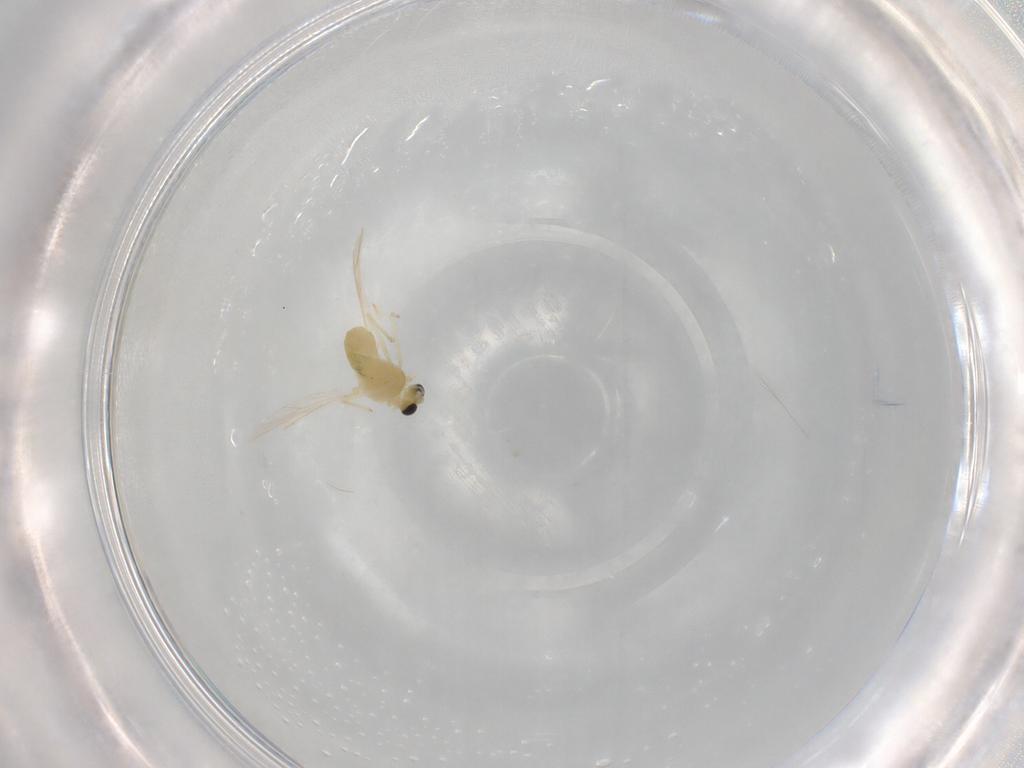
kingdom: Animalia
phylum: Arthropoda
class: Insecta
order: Diptera
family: Chironomidae
